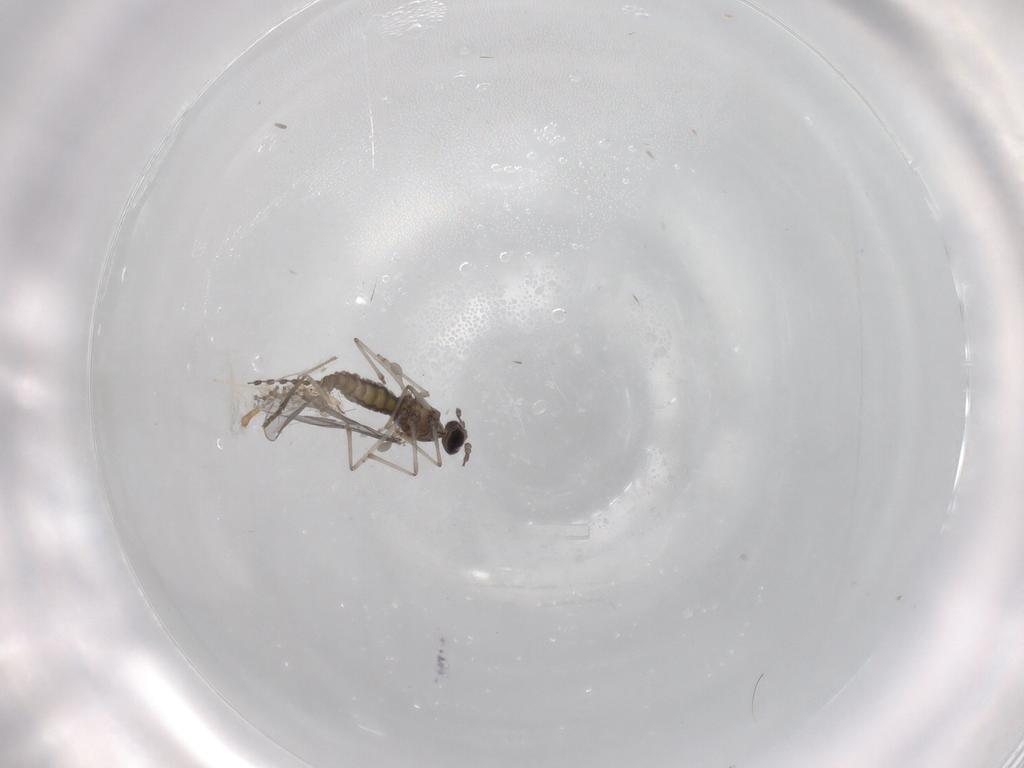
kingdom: Animalia
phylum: Arthropoda
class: Insecta
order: Diptera
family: Cecidomyiidae
